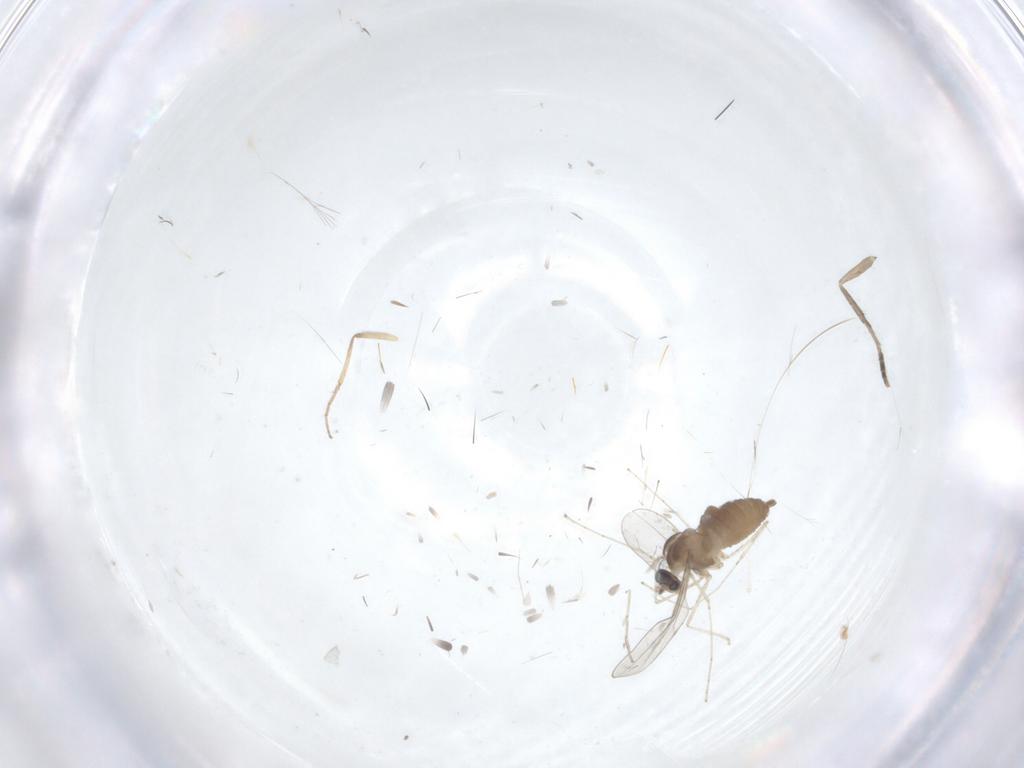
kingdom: Animalia
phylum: Arthropoda
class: Insecta
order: Diptera
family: Cecidomyiidae
